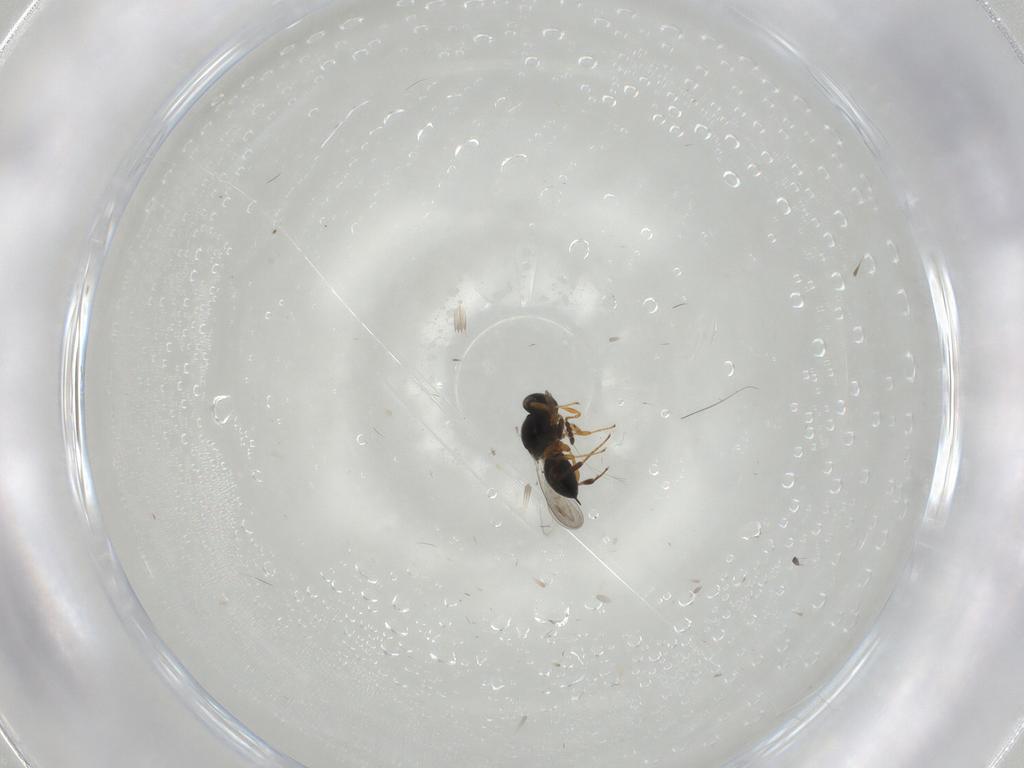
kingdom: Animalia
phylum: Arthropoda
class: Insecta
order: Hymenoptera
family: Platygastridae
